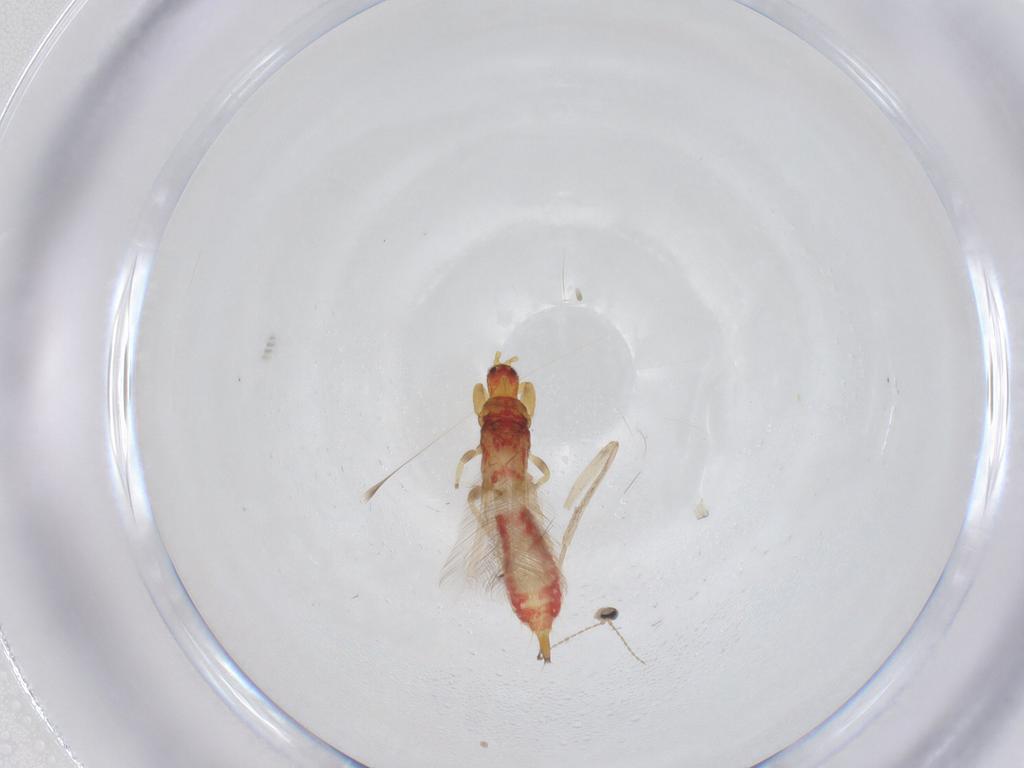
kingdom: Animalia
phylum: Arthropoda
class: Insecta
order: Thysanoptera
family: Phlaeothripidae
